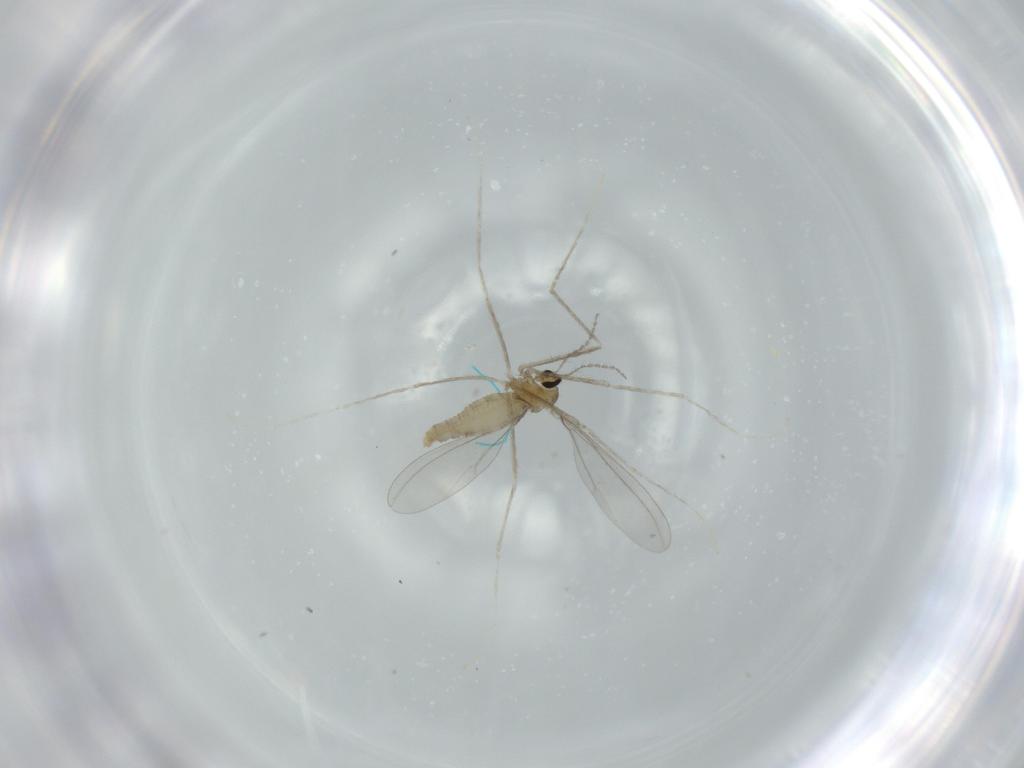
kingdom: Animalia
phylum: Arthropoda
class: Insecta
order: Diptera
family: Cecidomyiidae
